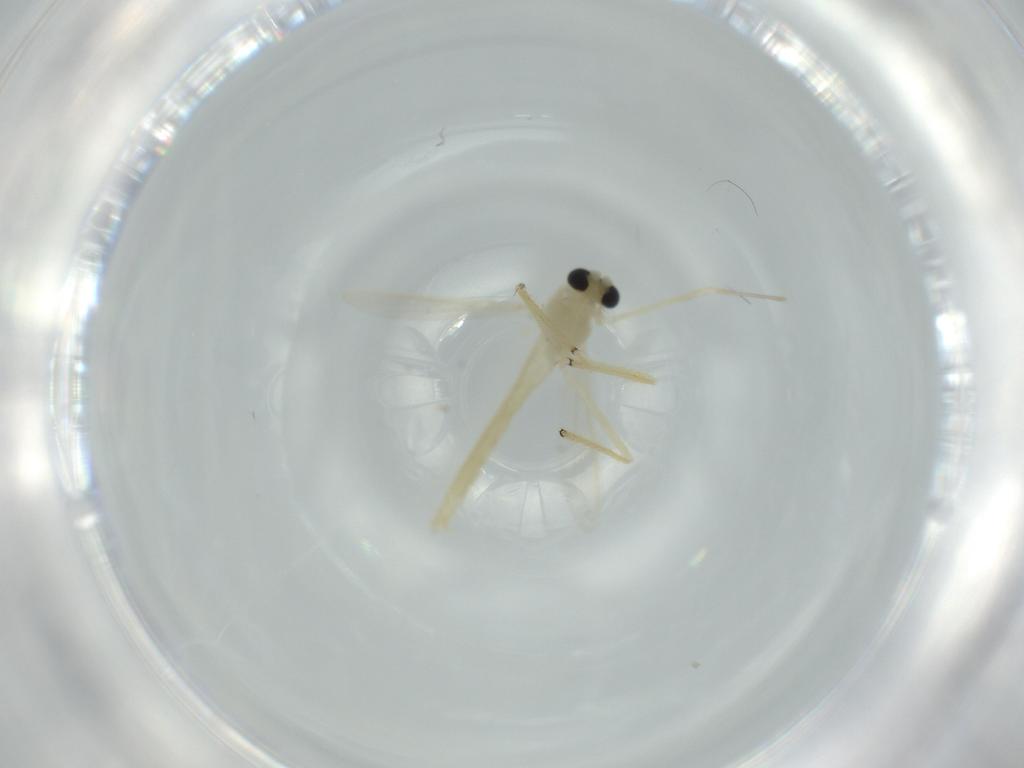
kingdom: Animalia
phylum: Arthropoda
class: Insecta
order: Diptera
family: Chironomidae
